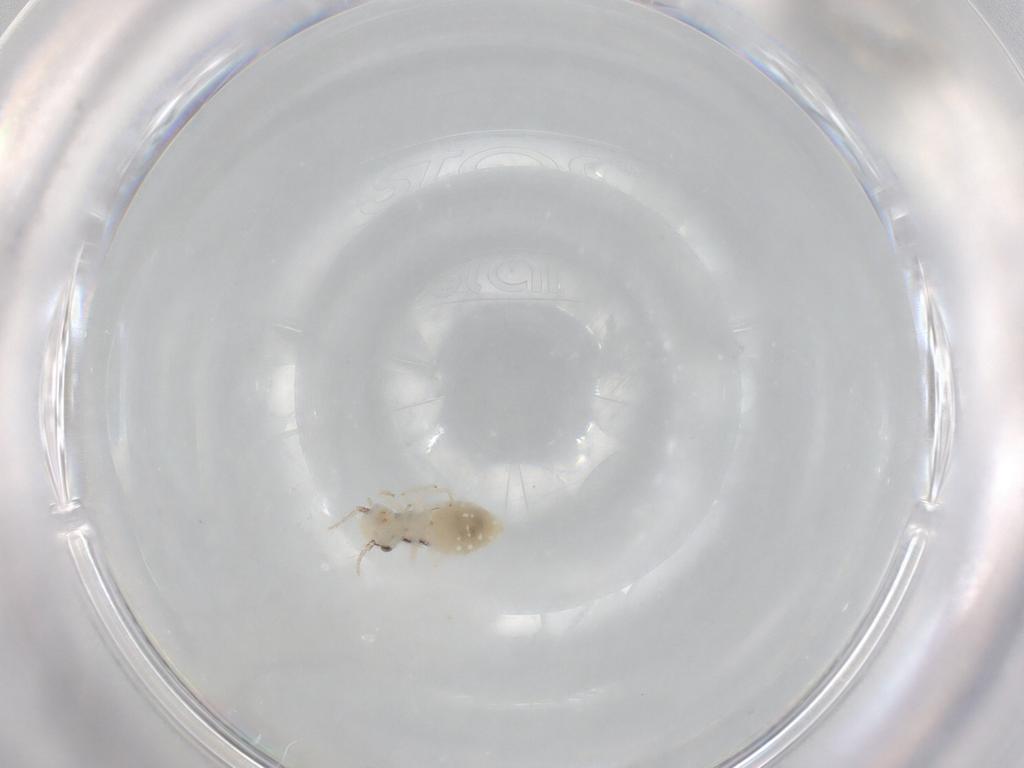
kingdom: Animalia
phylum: Arthropoda
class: Insecta
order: Psocodea
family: Philotarsidae
